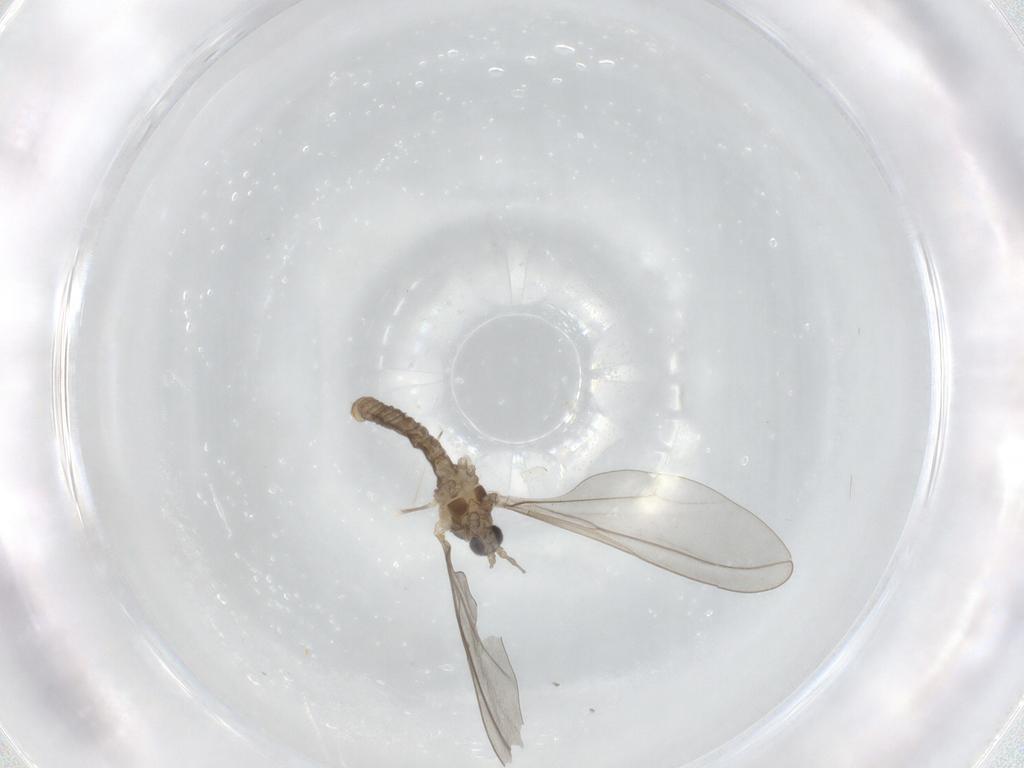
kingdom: Animalia
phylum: Arthropoda
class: Insecta
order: Diptera
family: Cecidomyiidae
